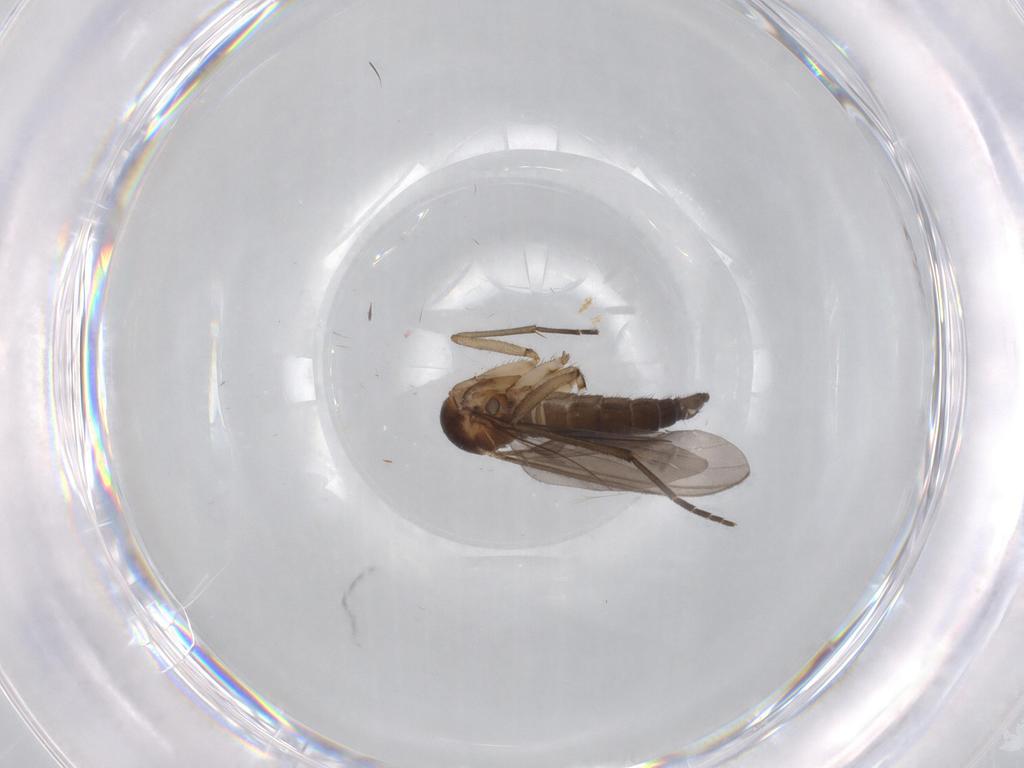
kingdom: Animalia
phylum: Arthropoda
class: Insecta
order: Diptera
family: Sciaridae
